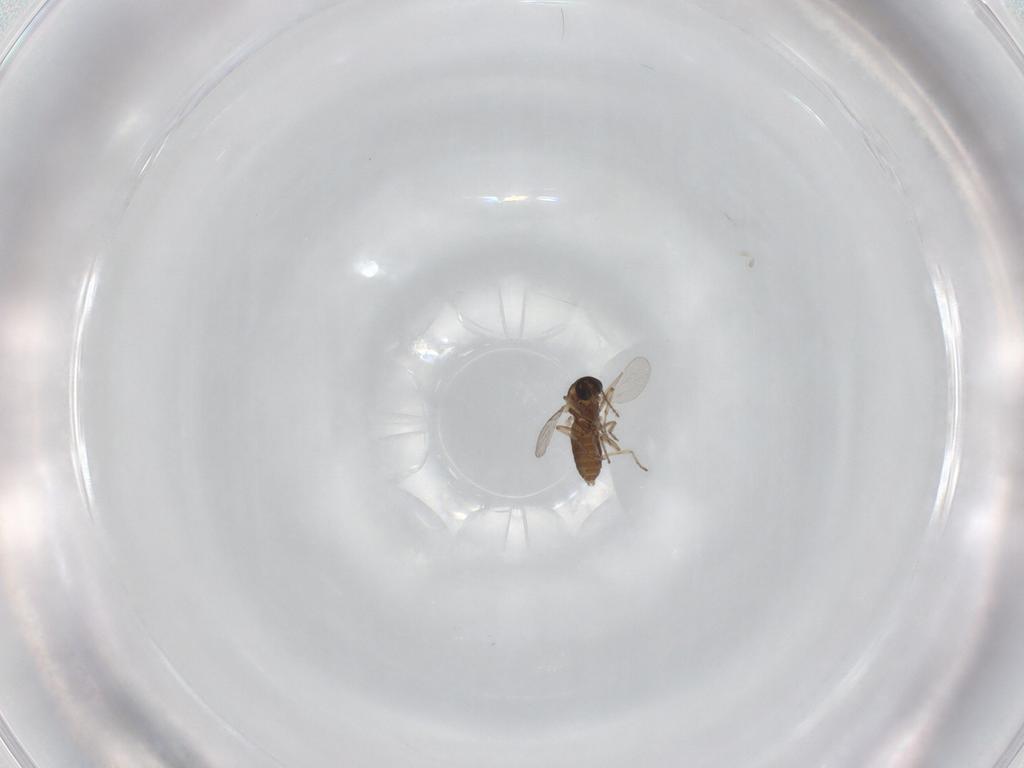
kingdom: Animalia
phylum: Arthropoda
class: Insecta
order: Diptera
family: Ceratopogonidae
